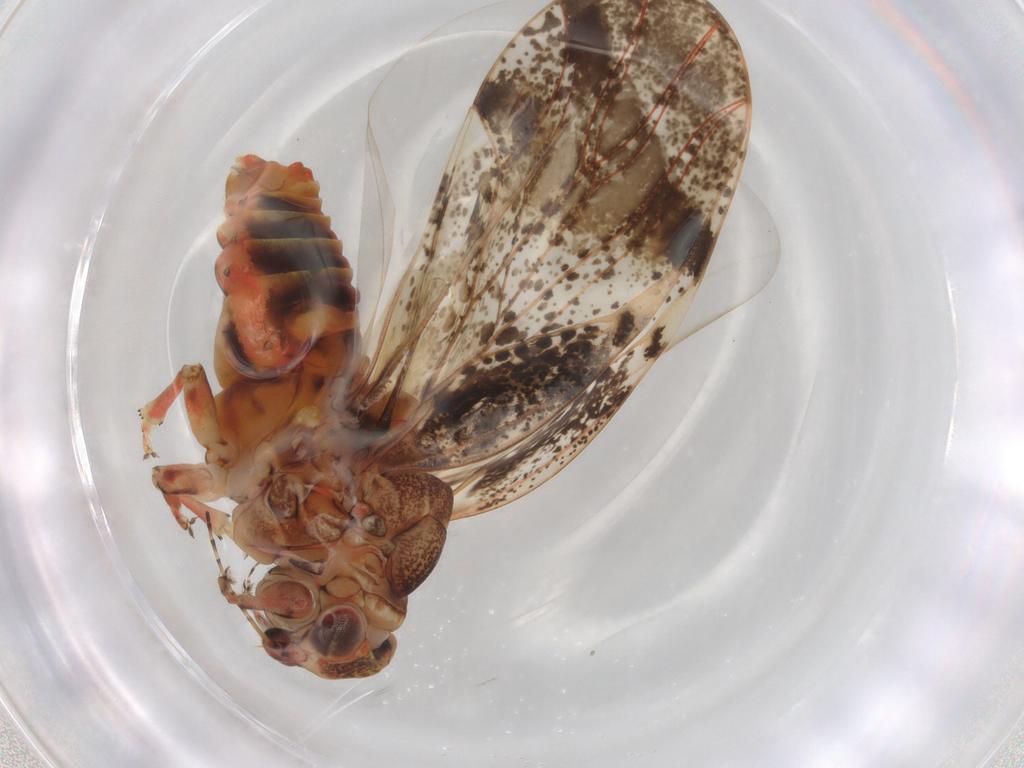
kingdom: Animalia
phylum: Arthropoda
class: Insecta
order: Hemiptera
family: Aphalaridae
